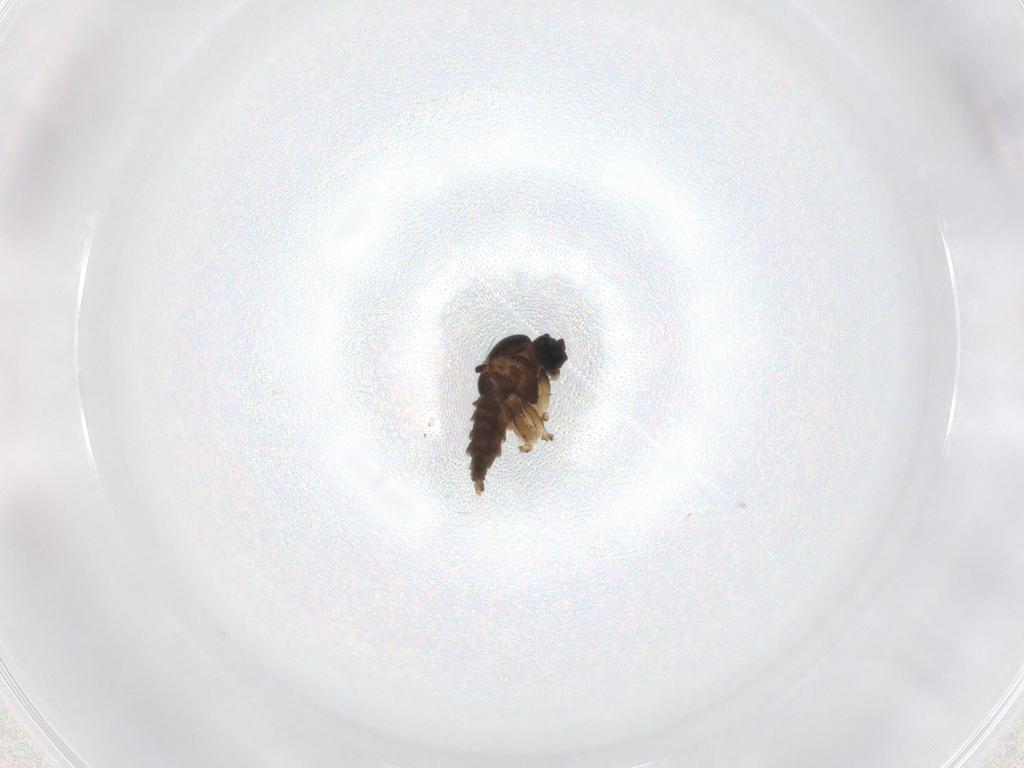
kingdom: Animalia
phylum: Arthropoda
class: Insecta
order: Diptera
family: Sciaridae
